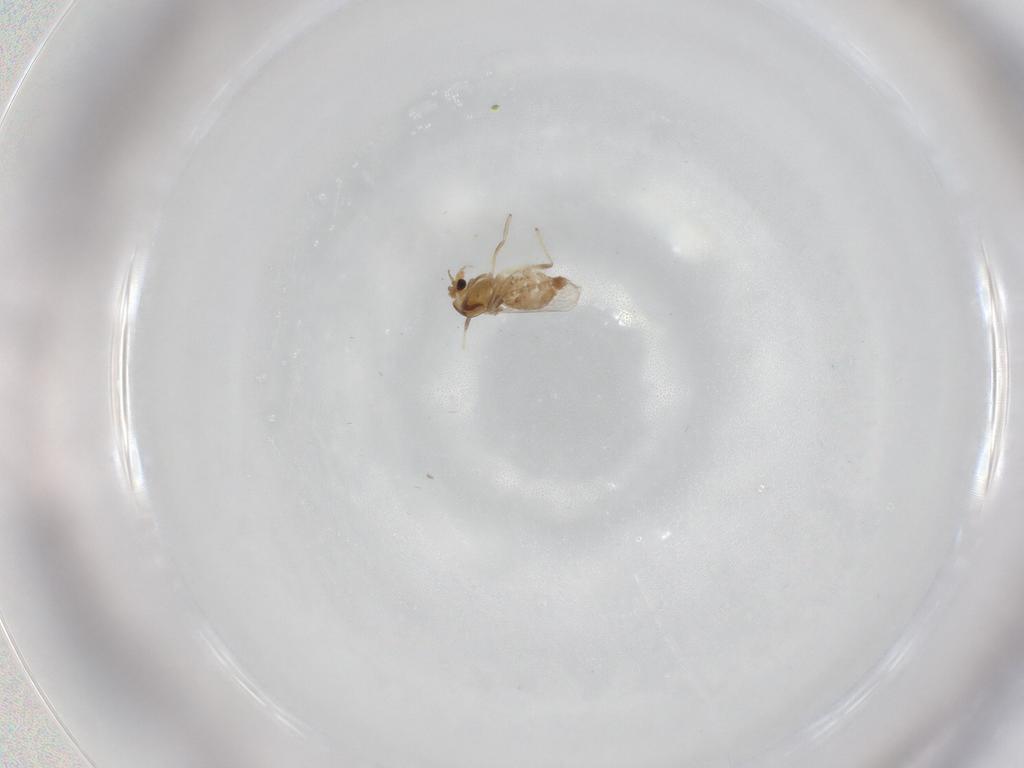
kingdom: Animalia
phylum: Arthropoda
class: Insecta
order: Diptera
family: Chironomidae
